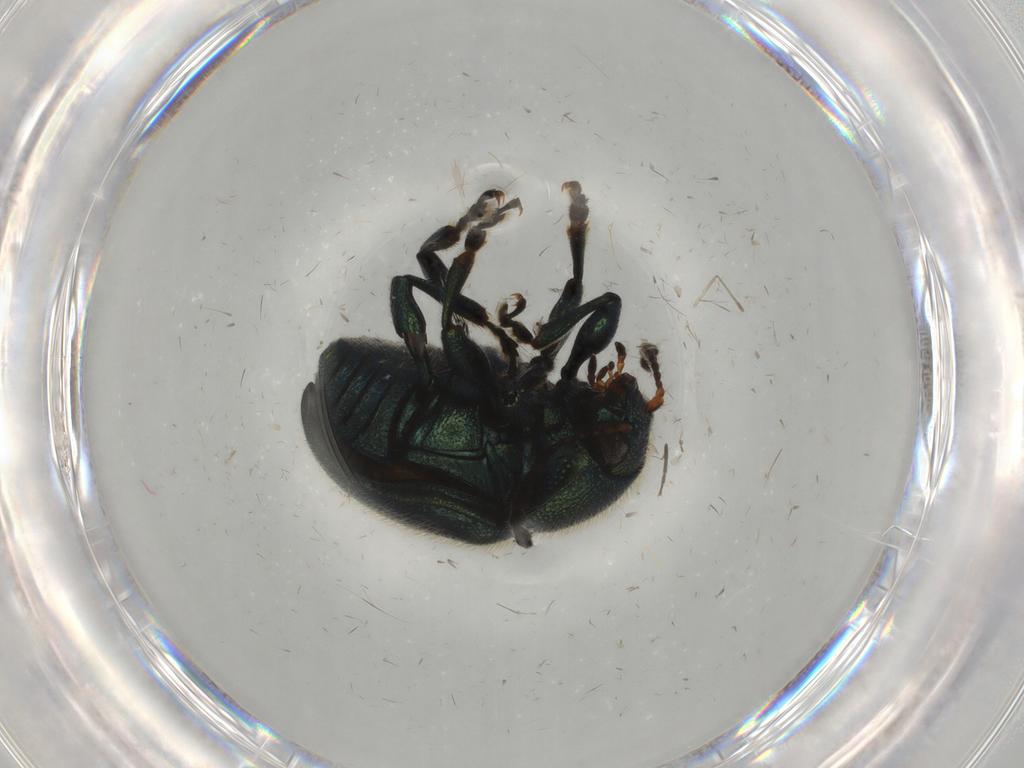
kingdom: Animalia
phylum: Arthropoda
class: Insecta
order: Coleoptera
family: Chrysomelidae
